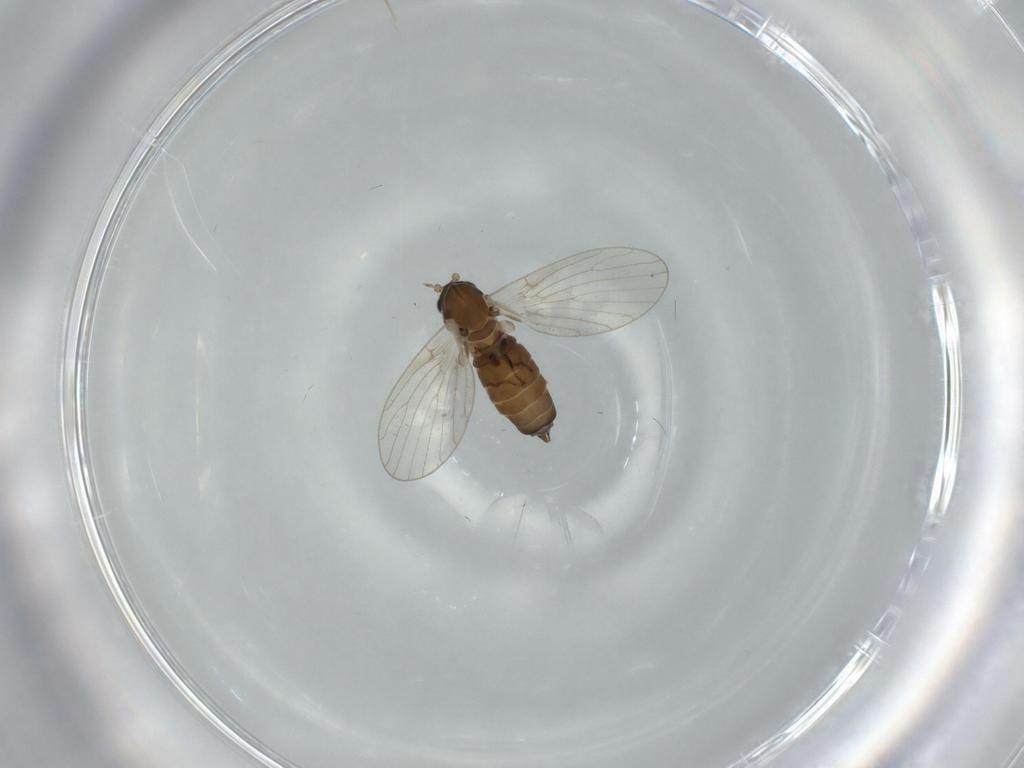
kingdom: Animalia
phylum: Arthropoda
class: Insecta
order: Diptera
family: Psychodidae
